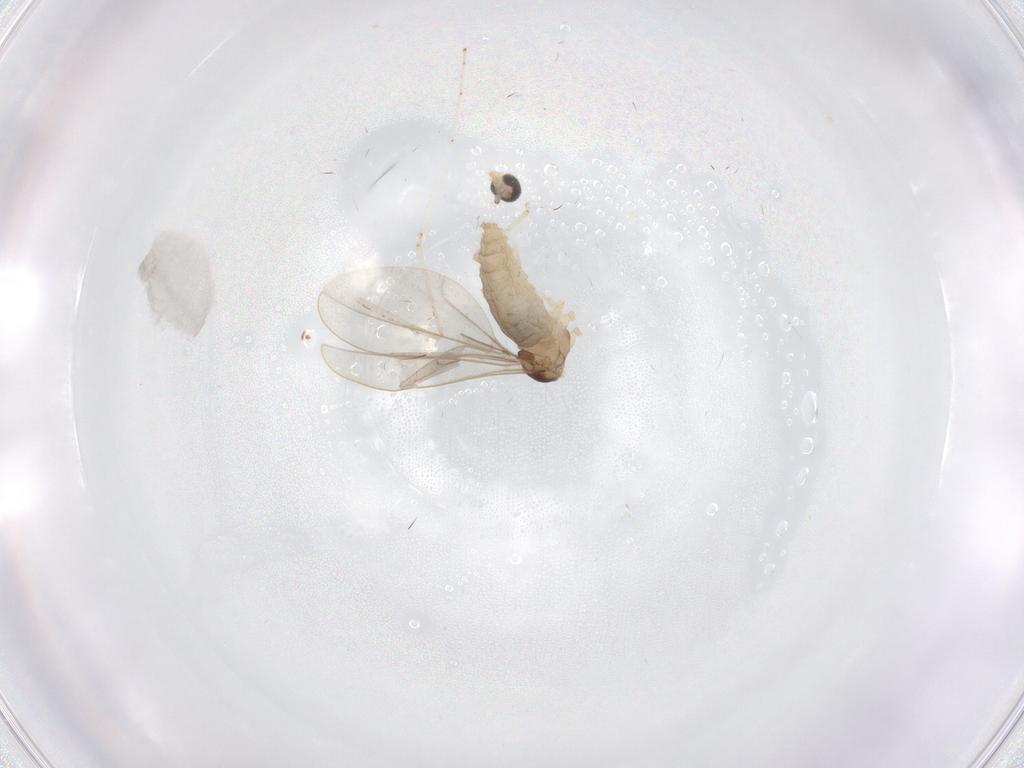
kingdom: Animalia
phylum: Arthropoda
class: Insecta
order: Diptera
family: Cecidomyiidae
